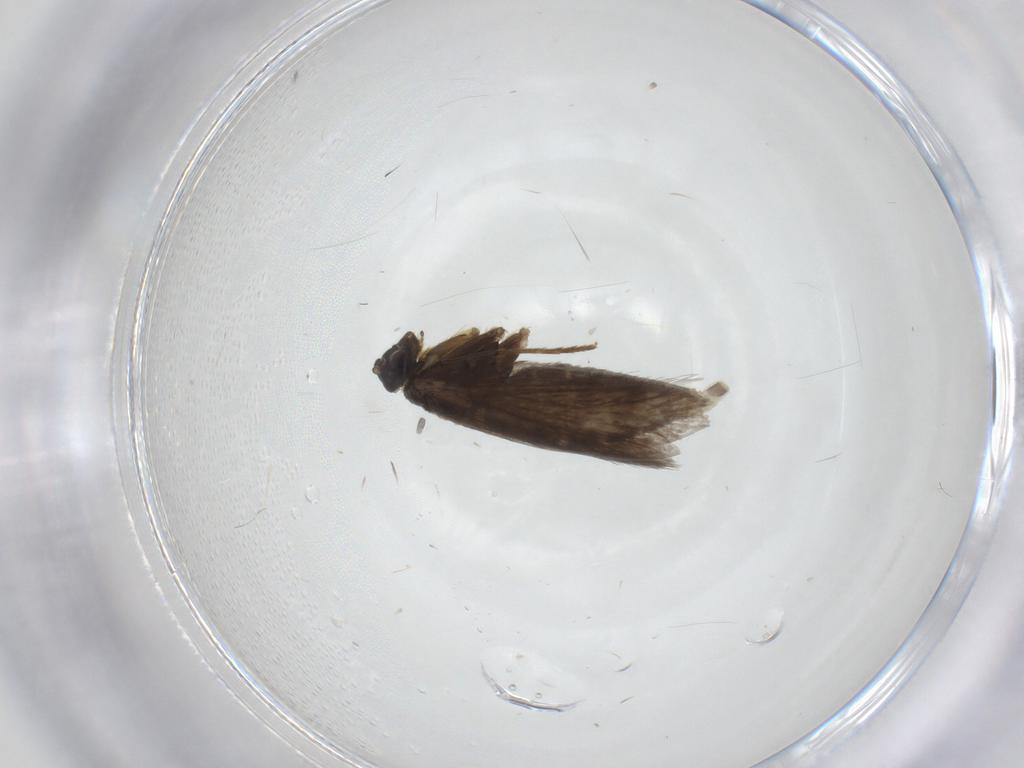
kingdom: Animalia
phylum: Arthropoda
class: Insecta
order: Lepidoptera
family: Micropterigidae
